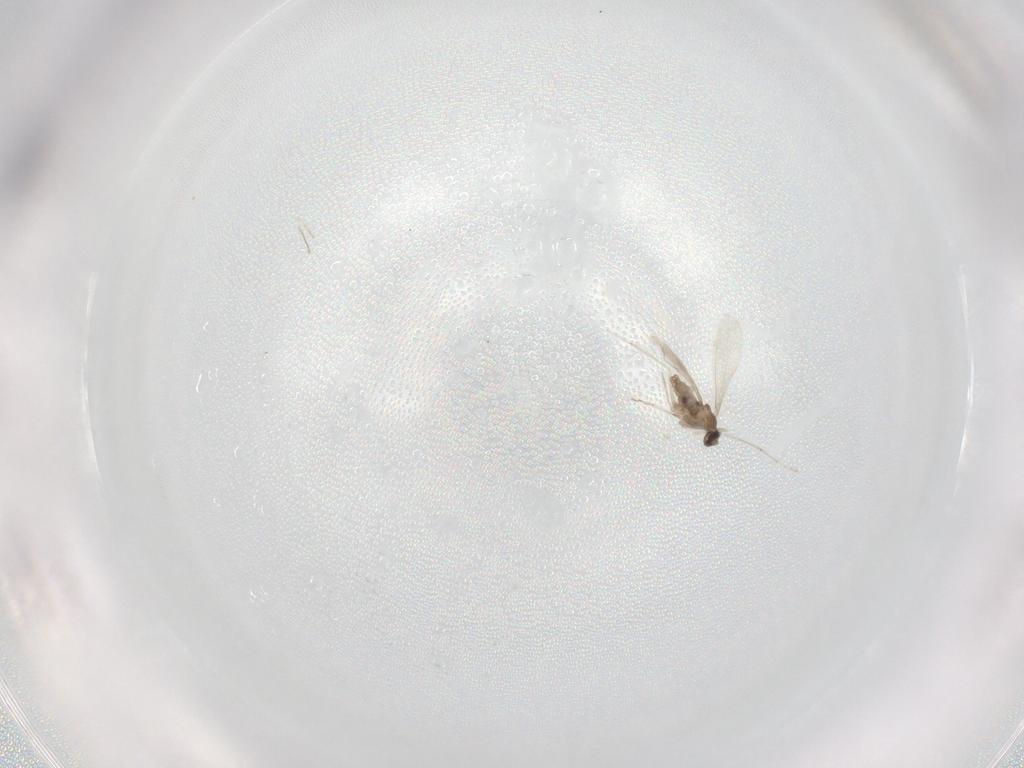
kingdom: Animalia
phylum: Arthropoda
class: Insecta
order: Diptera
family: Cecidomyiidae
